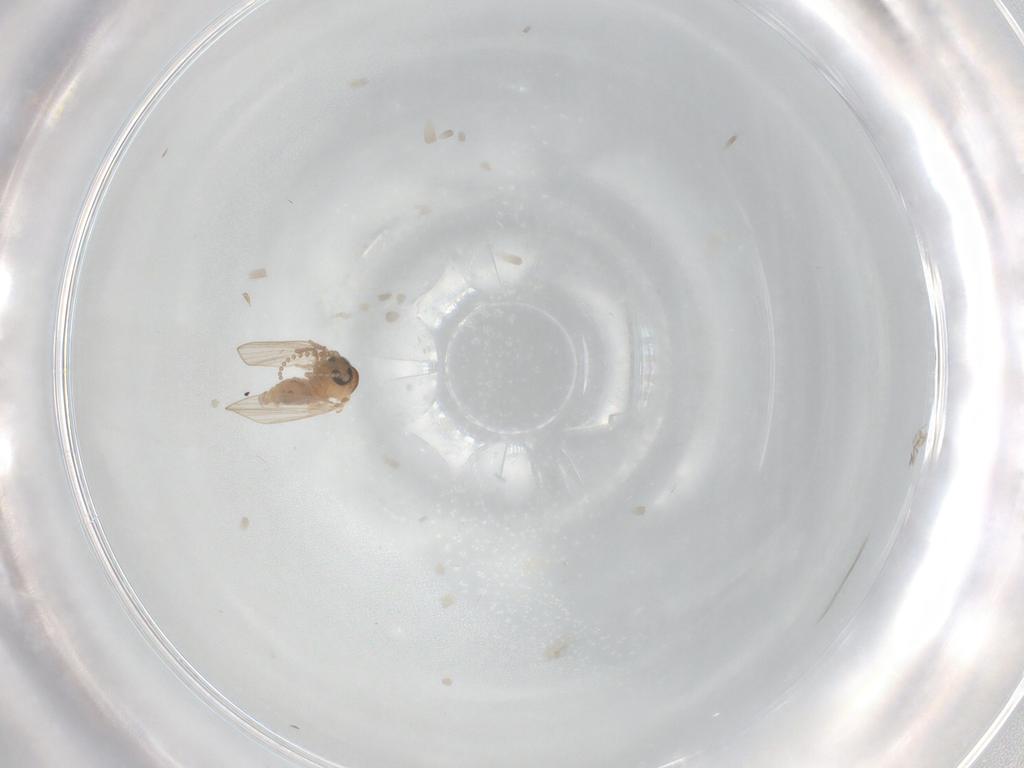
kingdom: Animalia
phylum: Arthropoda
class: Insecta
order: Diptera
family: Psychodidae
